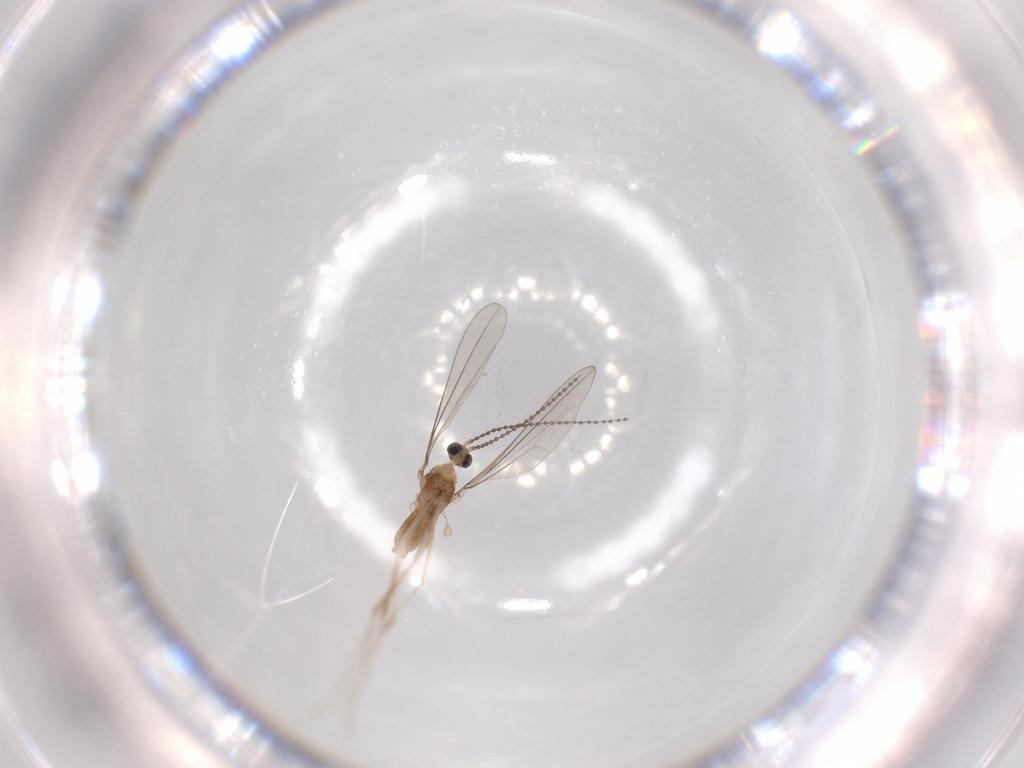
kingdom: Animalia
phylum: Arthropoda
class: Insecta
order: Diptera
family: Cecidomyiidae
